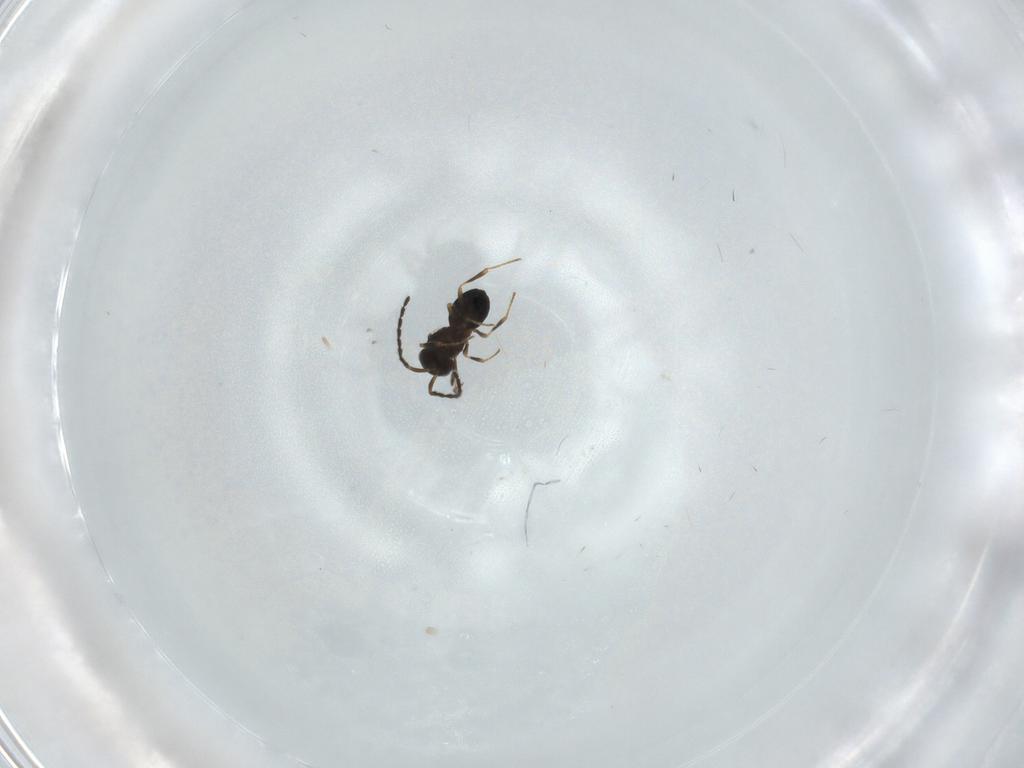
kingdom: Animalia
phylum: Arthropoda
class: Insecta
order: Hymenoptera
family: Scelionidae
